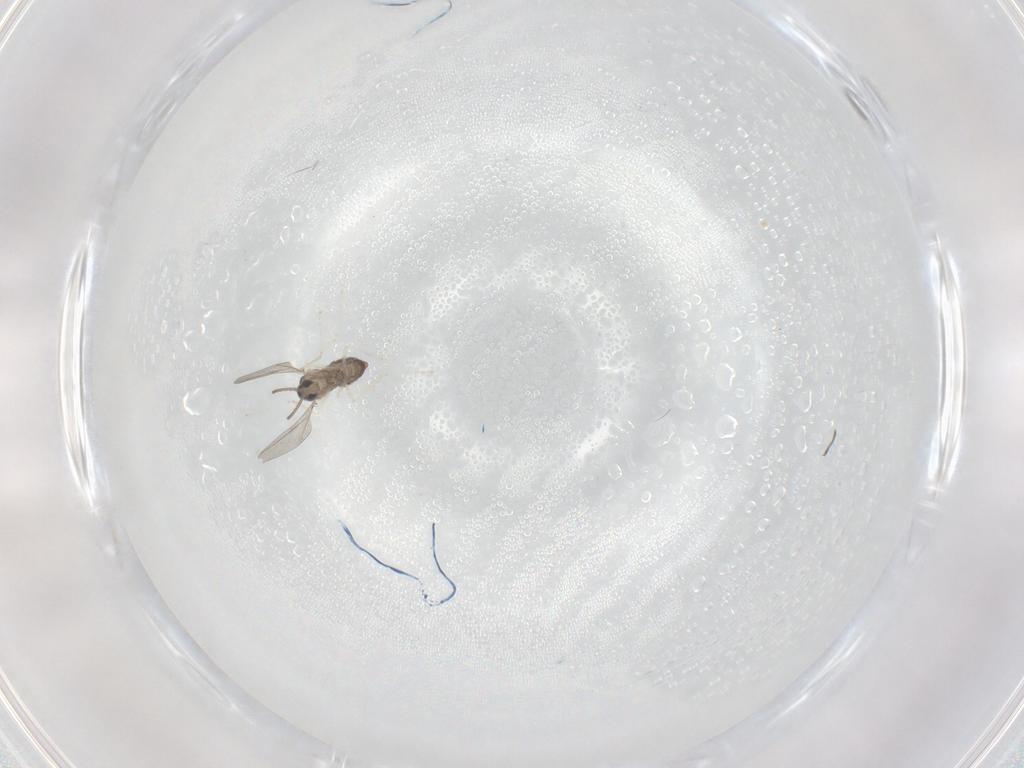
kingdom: Animalia
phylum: Arthropoda
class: Insecta
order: Diptera
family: Cecidomyiidae
